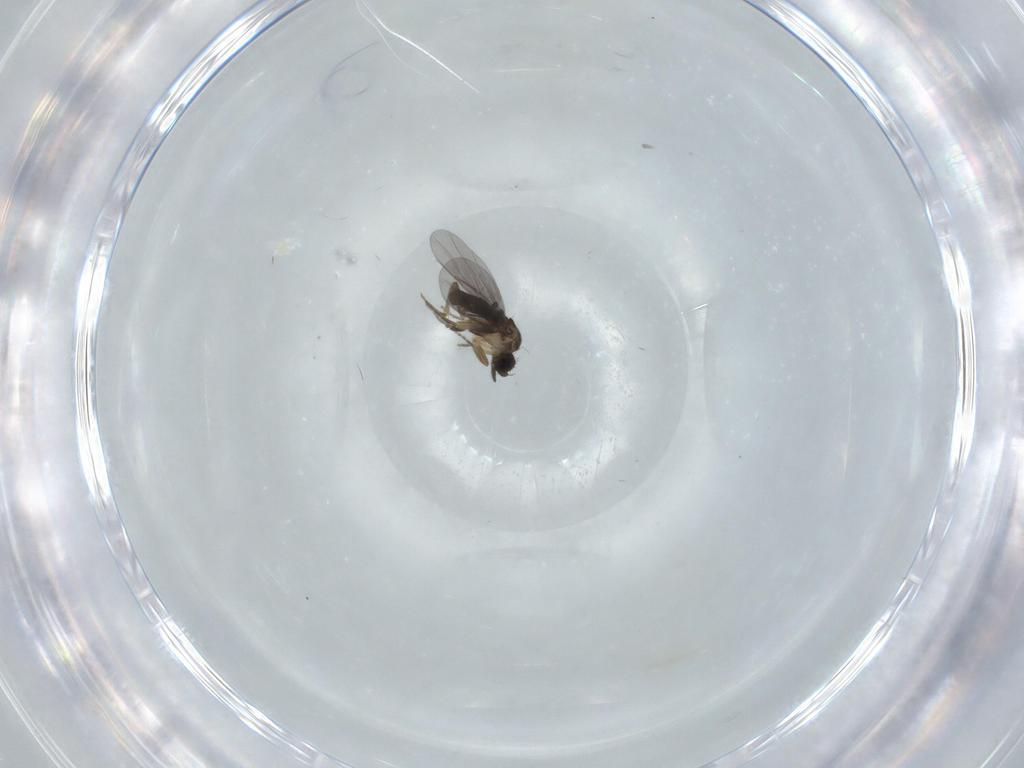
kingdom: Animalia
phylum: Arthropoda
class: Insecta
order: Diptera
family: Phoridae
